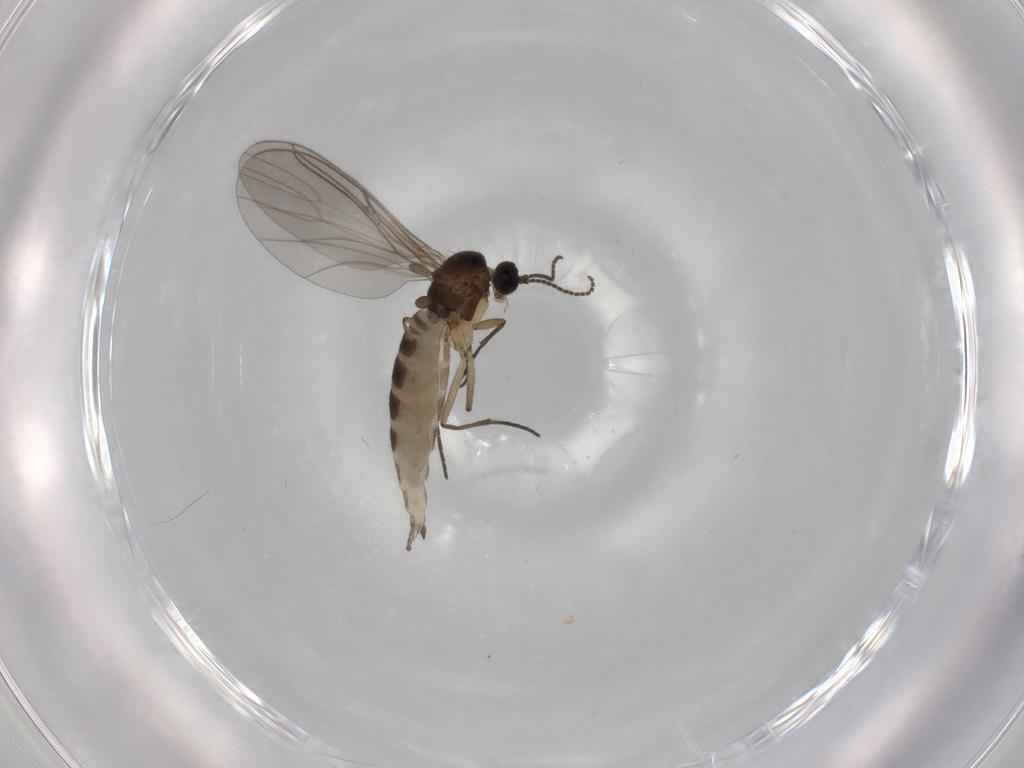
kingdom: Animalia
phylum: Arthropoda
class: Insecta
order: Diptera
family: Sciaridae
